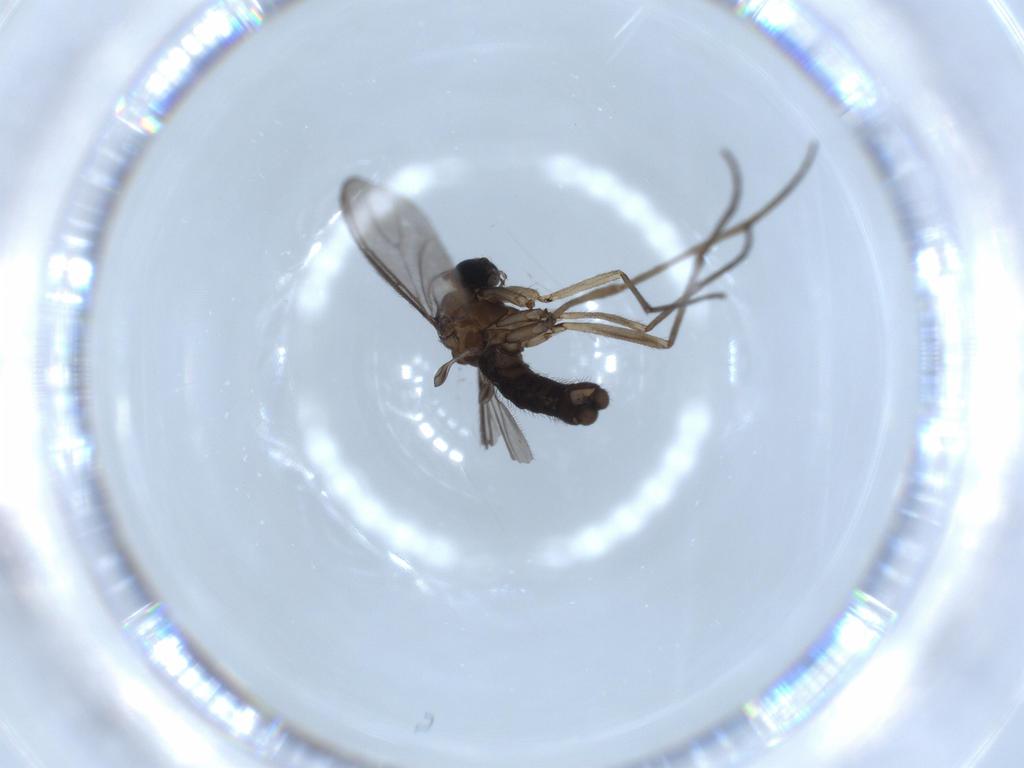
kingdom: Animalia
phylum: Arthropoda
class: Insecta
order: Diptera
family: Sciaridae
